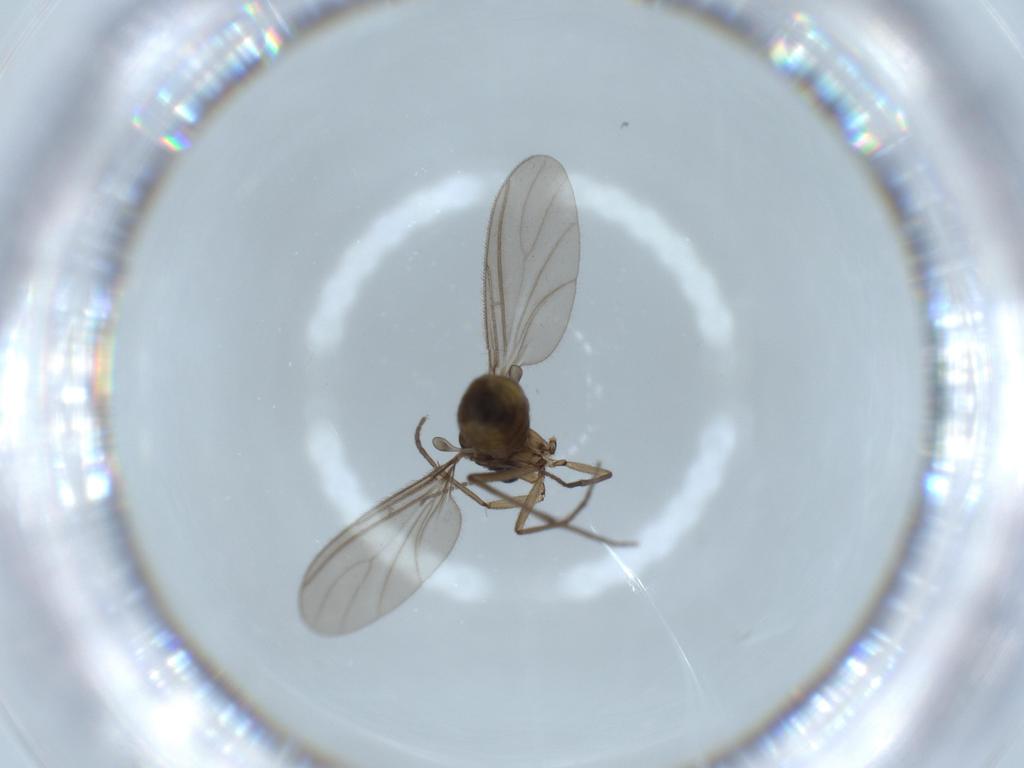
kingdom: Animalia
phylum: Arthropoda
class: Insecta
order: Diptera
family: Sciaridae
